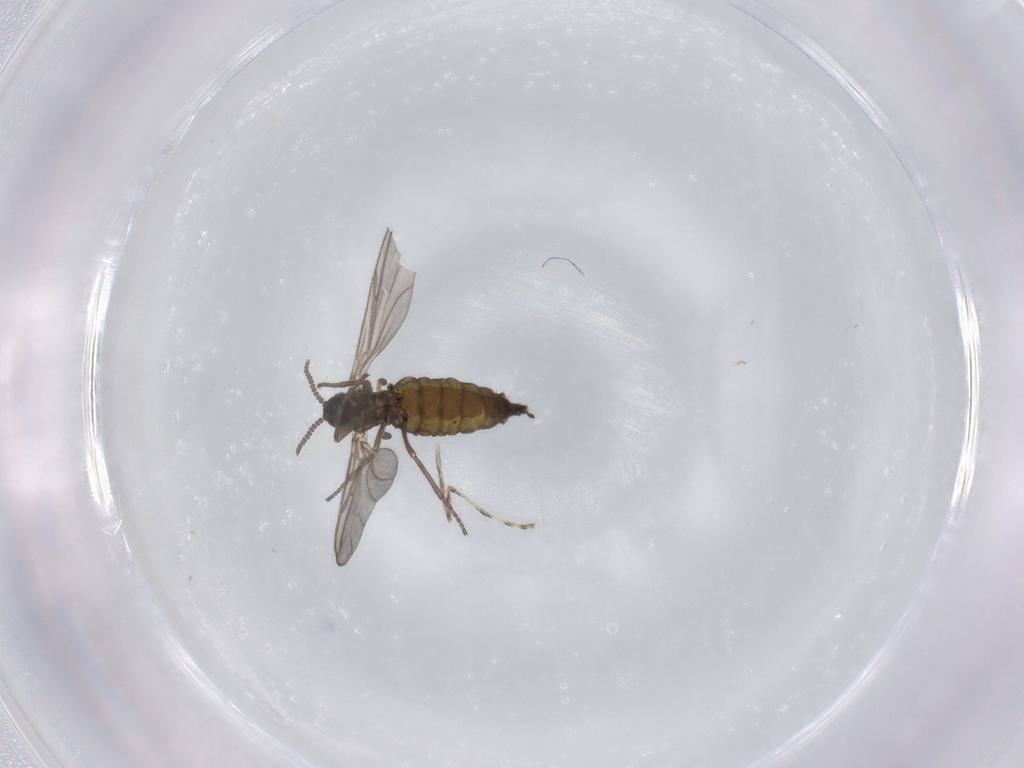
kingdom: Animalia
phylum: Arthropoda
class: Insecta
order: Diptera
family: Sciaridae
